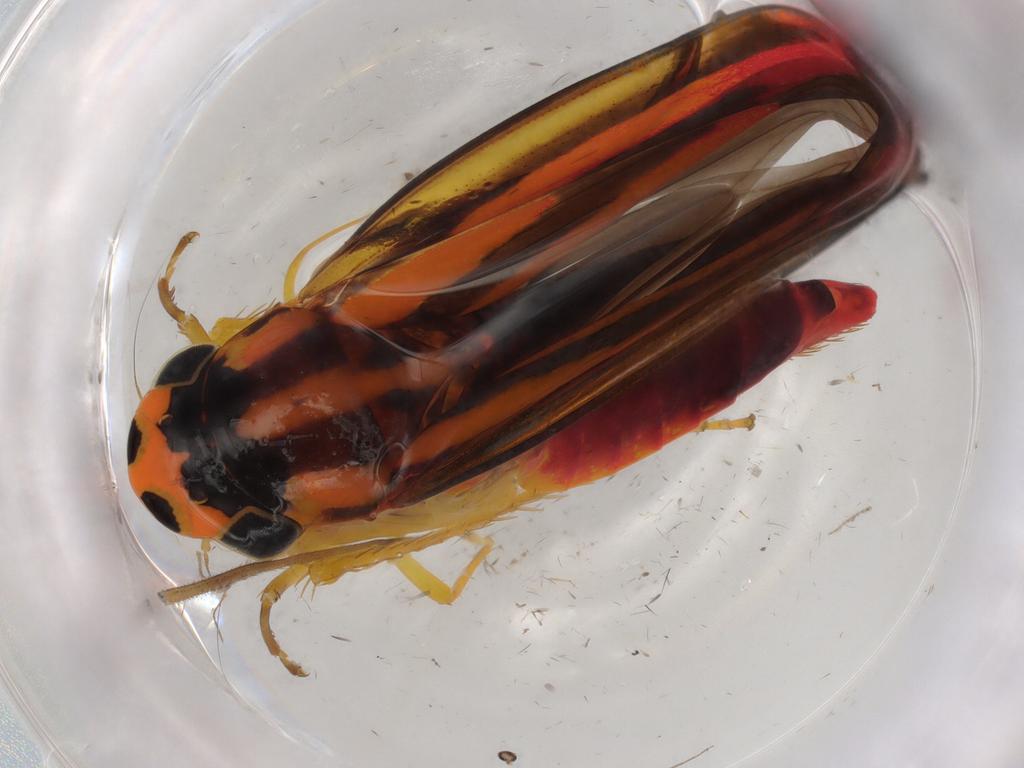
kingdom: Animalia
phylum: Arthropoda
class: Insecta
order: Hemiptera
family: Cicadellidae
